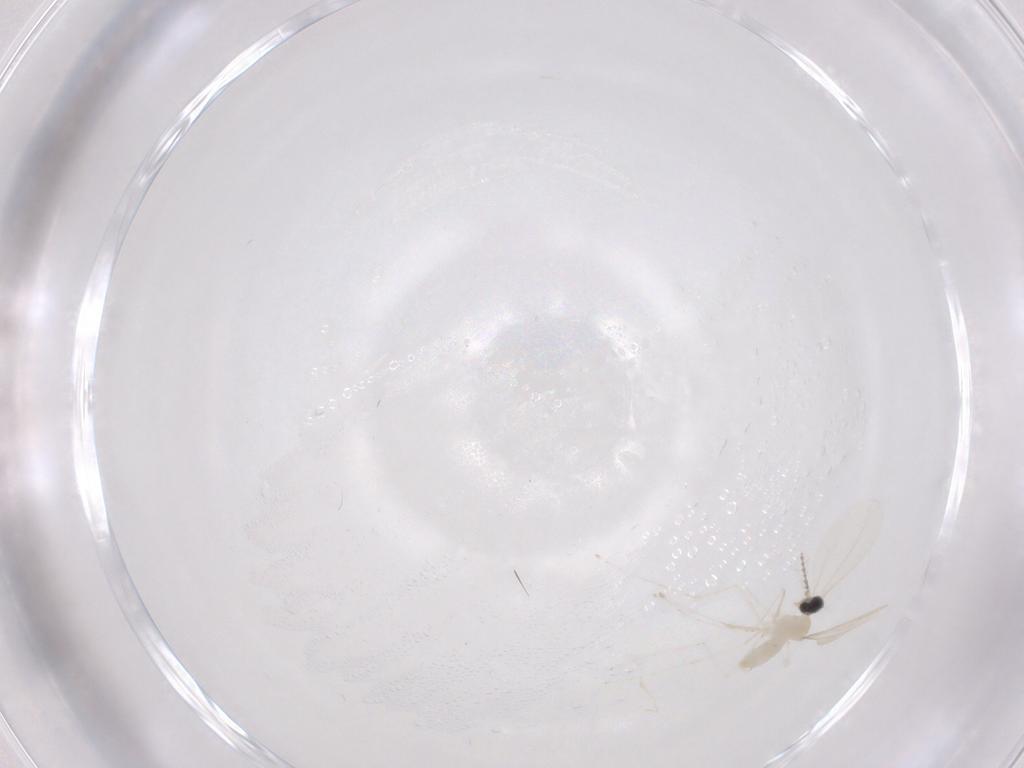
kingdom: Animalia
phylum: Arthropoda
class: Insecta
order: Diptera
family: Cecidomyiidae
